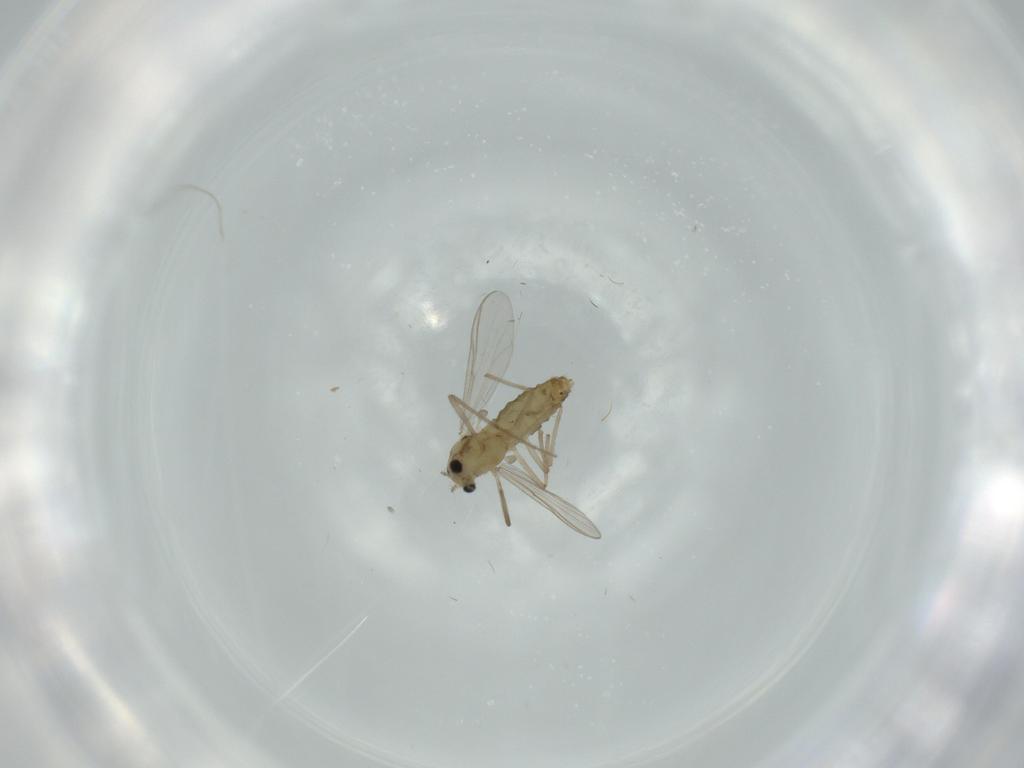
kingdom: Animalia
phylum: Arthropoda
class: Insecta
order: Diptera
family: Chironomidae
